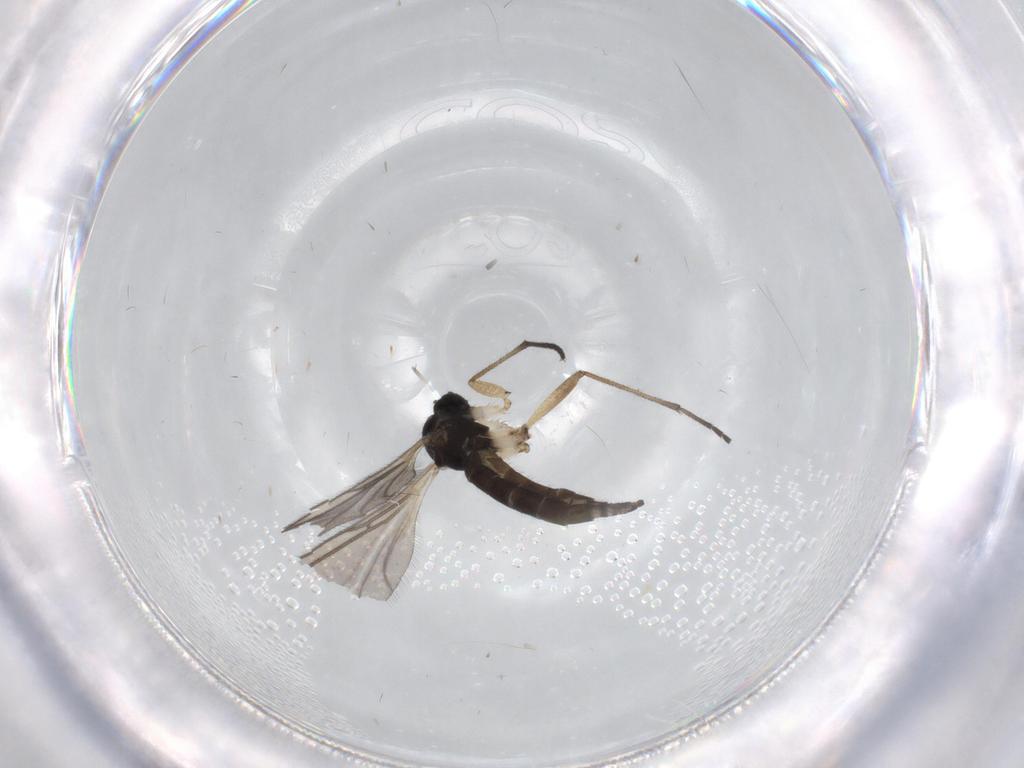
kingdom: Animalia
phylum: Arthropoda
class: Insecta
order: Diptera
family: Sciaridae
